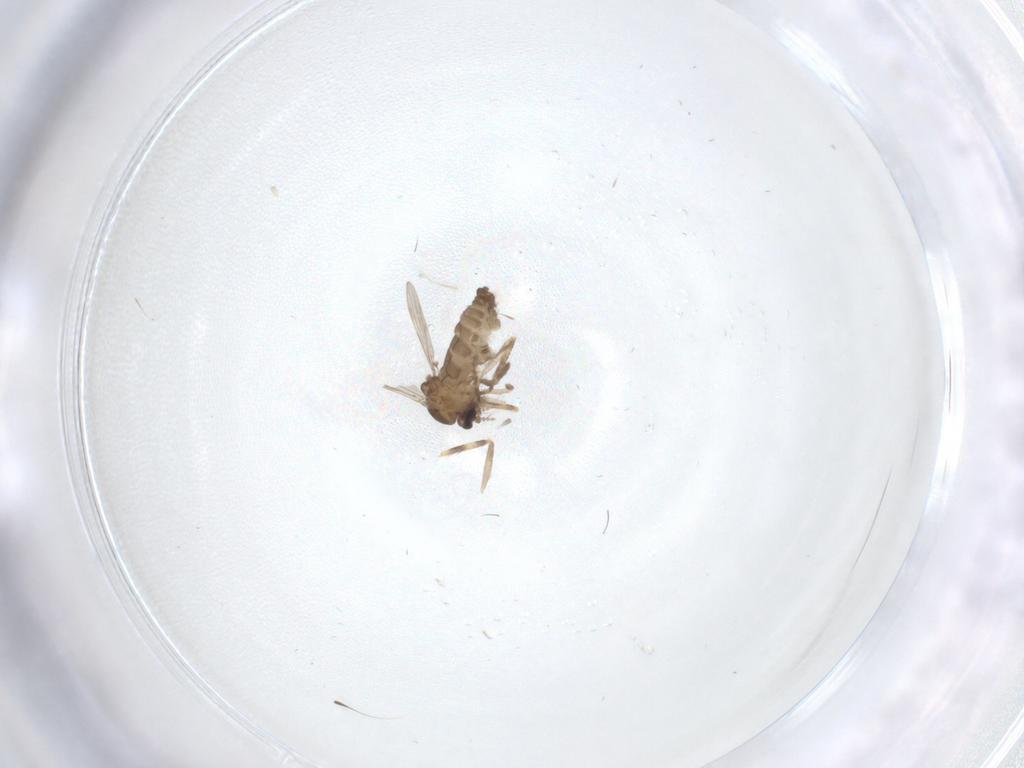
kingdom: Animalia
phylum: Arthropoda
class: Insecta
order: Diptera
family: Ceratopogonidae
